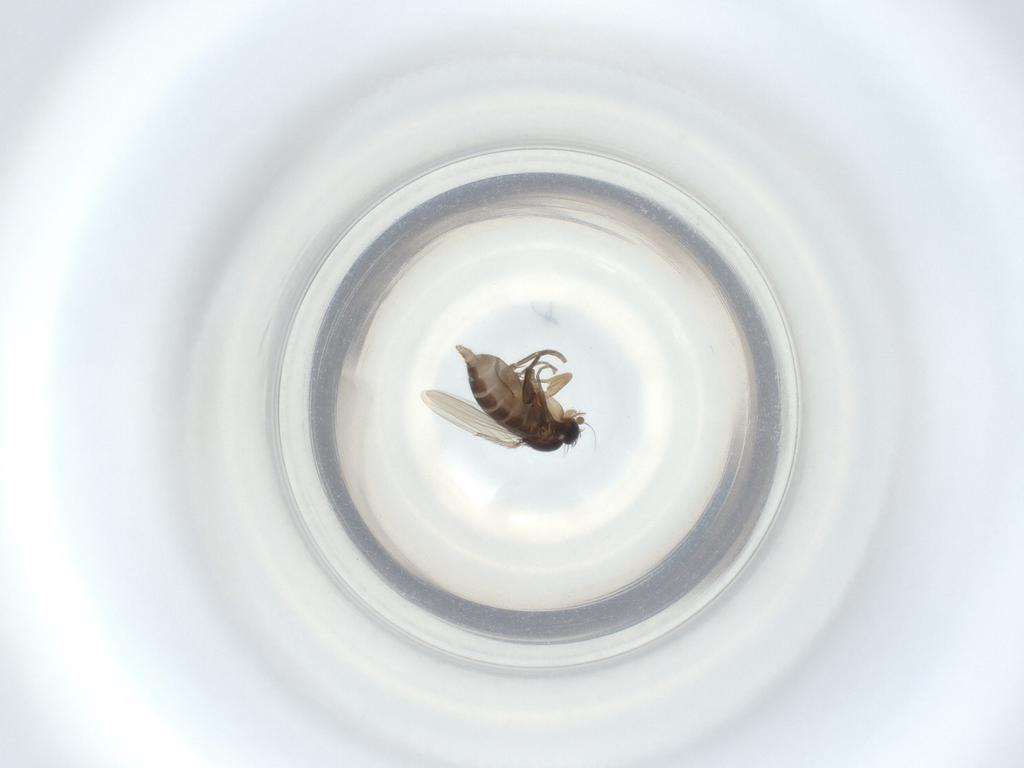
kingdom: Animalia
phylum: Arthropoda
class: Insecta
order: Diptera
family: Phoridae
